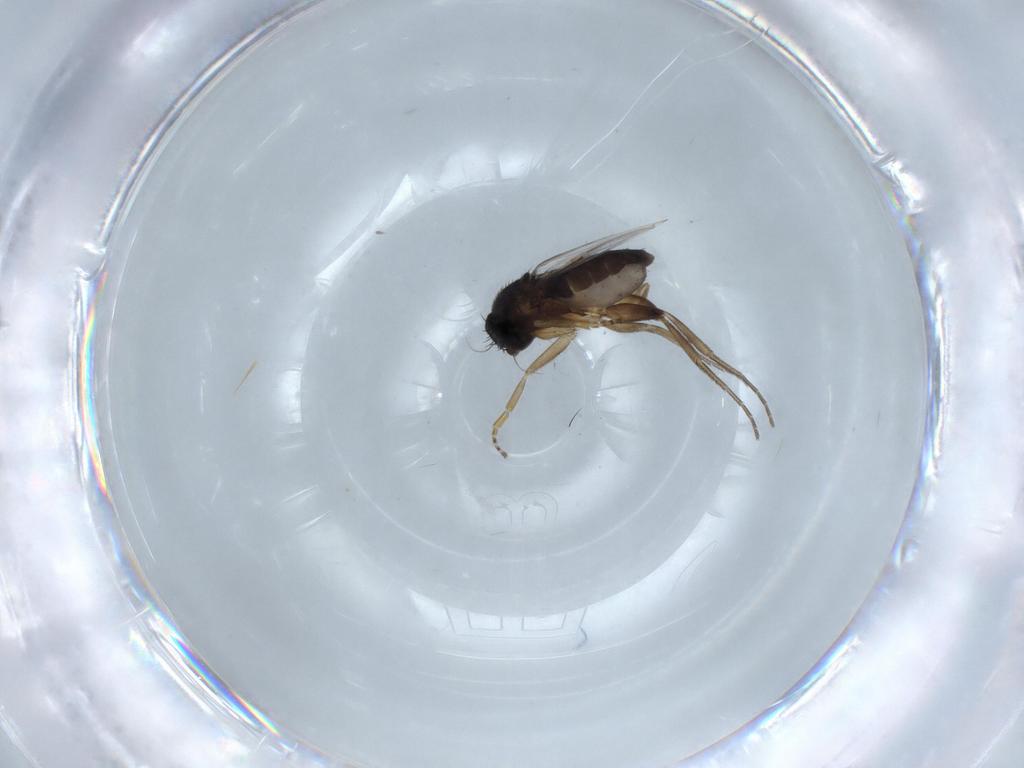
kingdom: Animalia
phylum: Arthropoda
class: Insecta
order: Diptera
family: Phoridae
